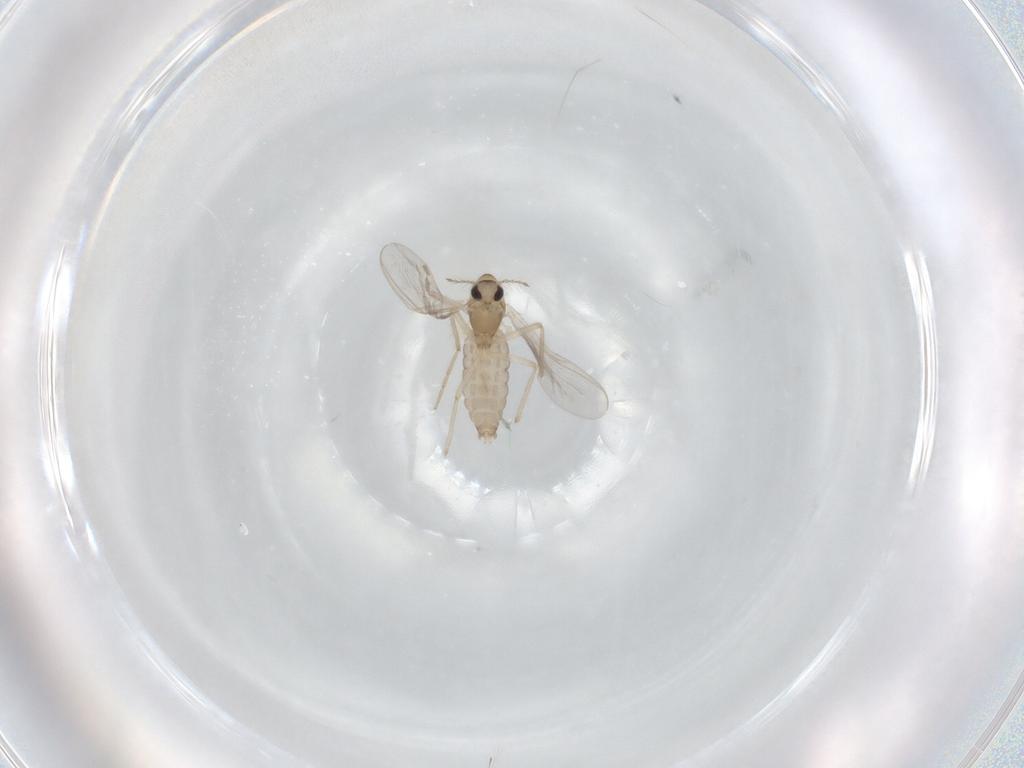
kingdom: Animalia
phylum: Arthropoda
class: Insecta
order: Diptera
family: Chironomidae
